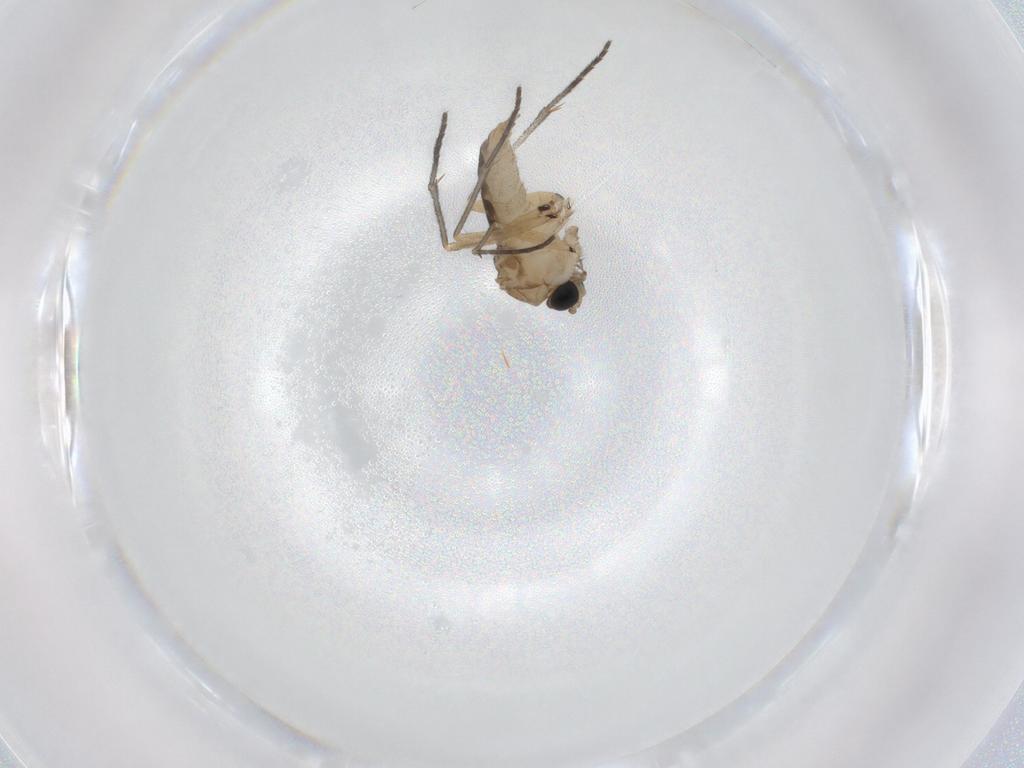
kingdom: Animalia
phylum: Arthropoda
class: Insecta
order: Diptera
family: Sciaridae
